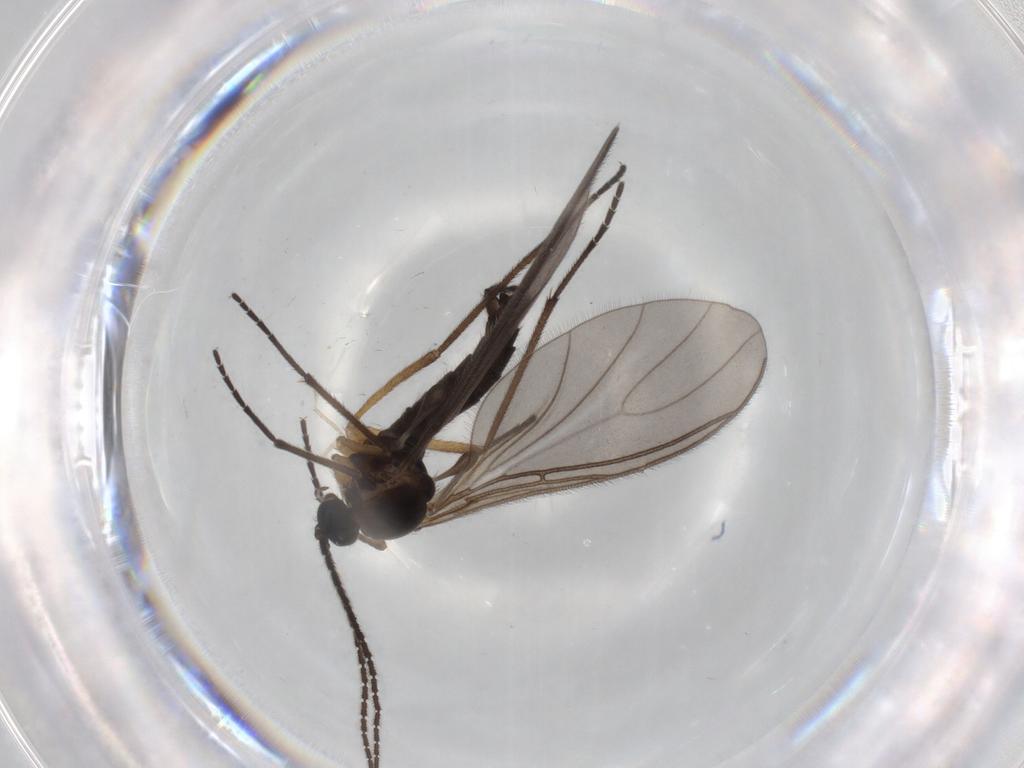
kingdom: Animalia
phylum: Arthropoda
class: Insecta
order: Diptera
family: Sciaridae
